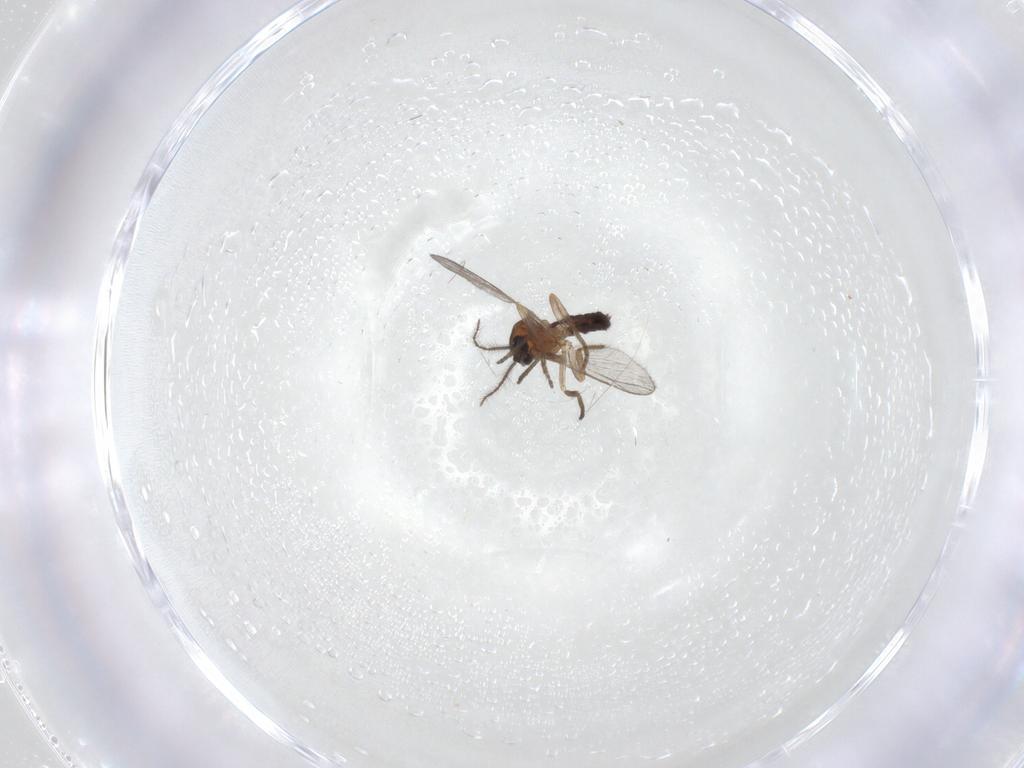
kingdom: Animalia
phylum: Arthropoda
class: Insecta
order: Diptera
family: Ceratopogonidae
